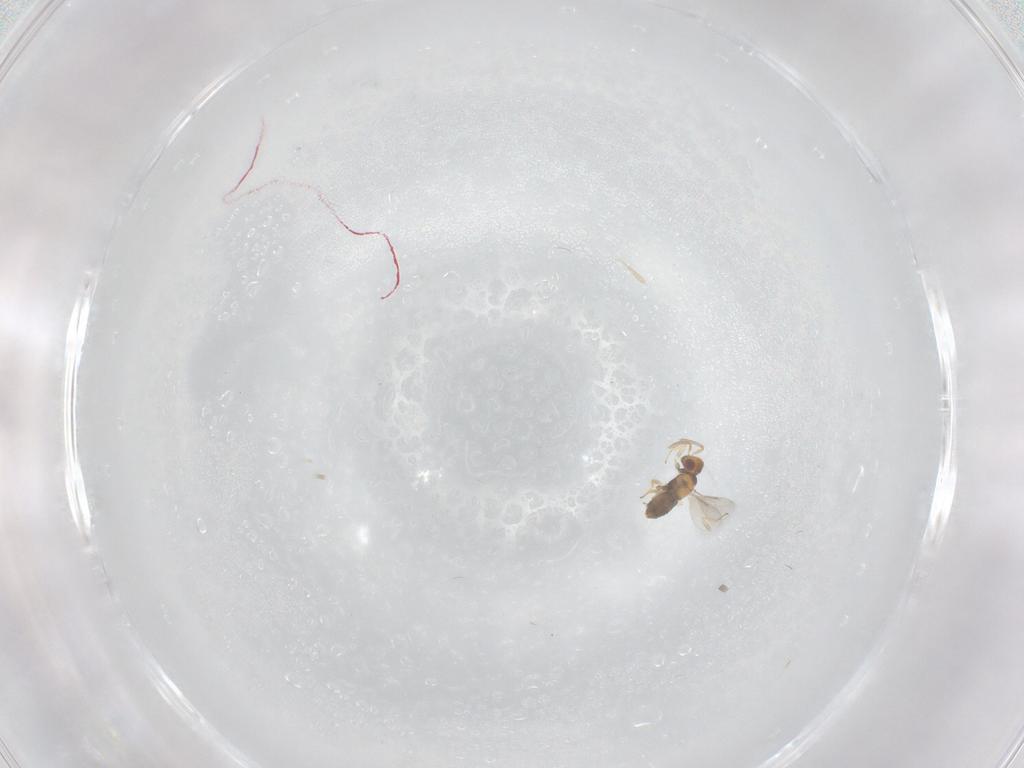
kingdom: Animalia
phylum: Arthropoda
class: Insecta
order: Hymenoptera
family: Aphelinidae
